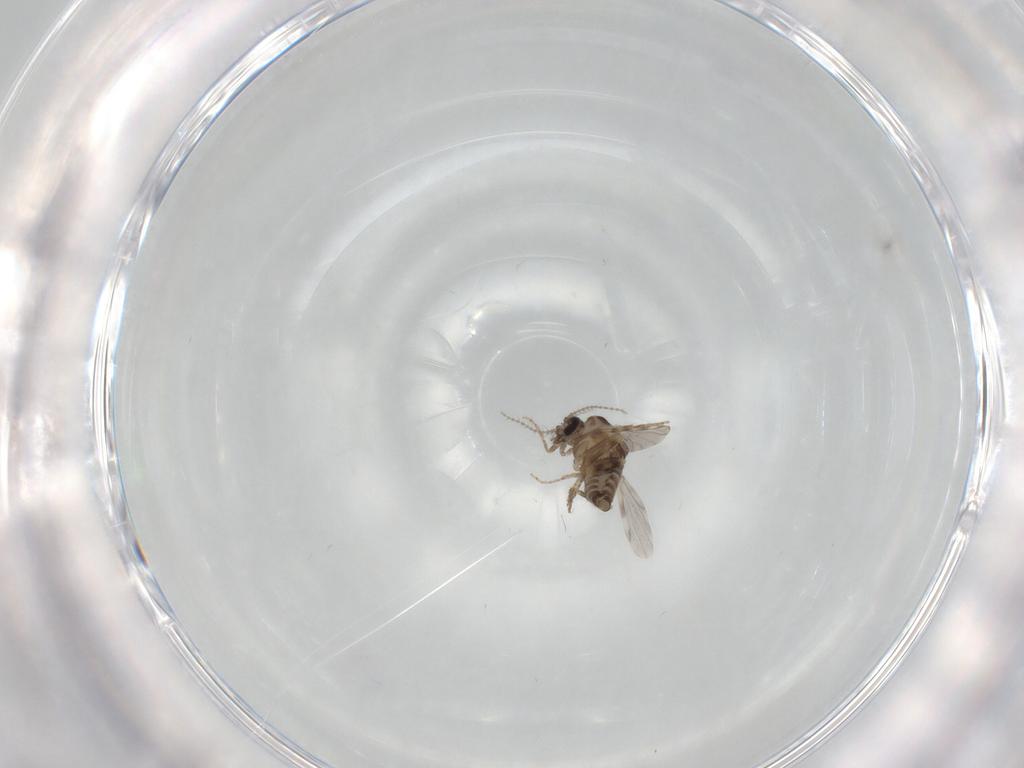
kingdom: Animalia
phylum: Arthropoda
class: Insecta
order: Diptera
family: Ceratopogonidae
